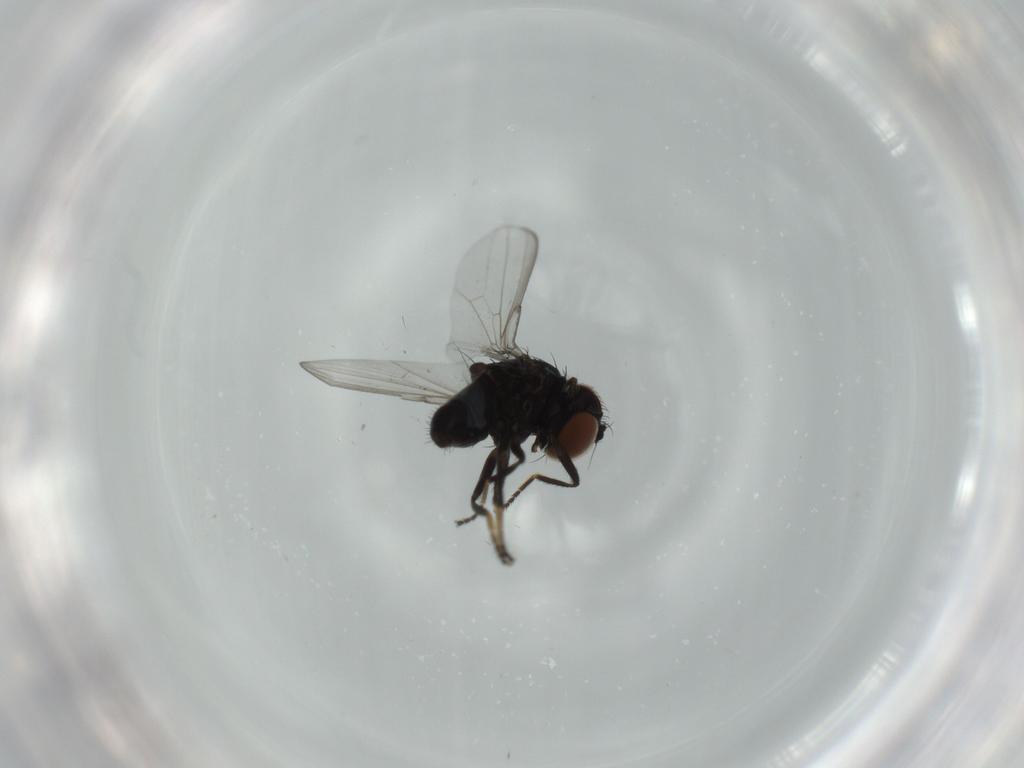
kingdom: Animalia
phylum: Arthropoda
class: Insecta
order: Diptera
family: Milichiidae
